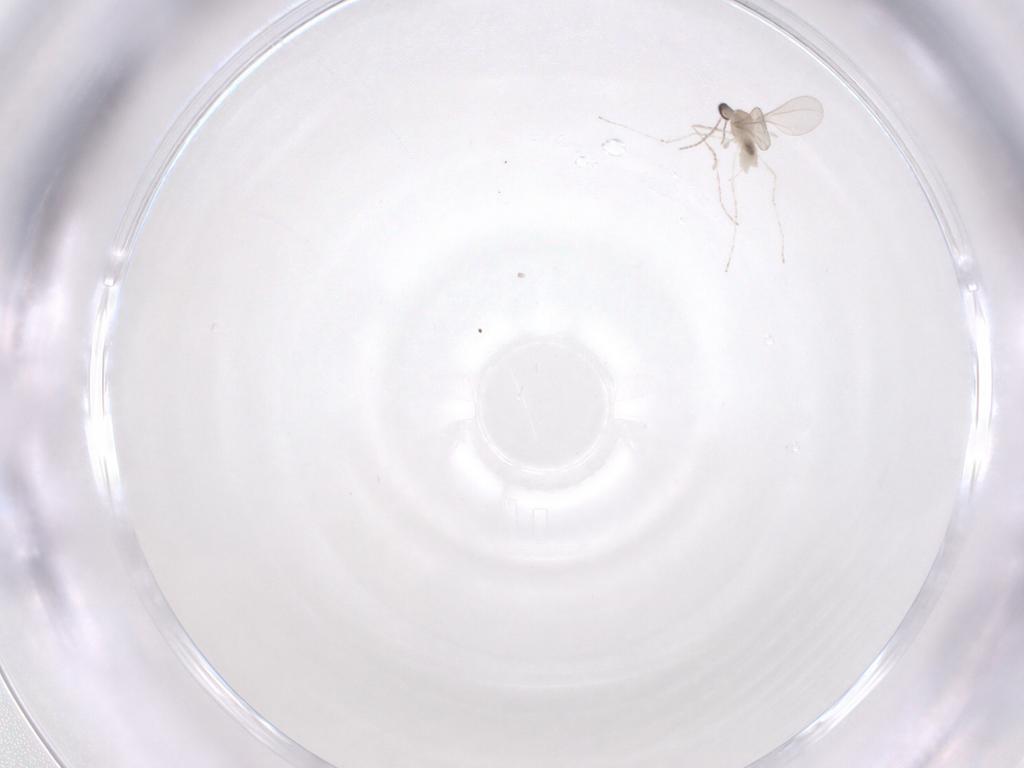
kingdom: Animalia
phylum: Arthropoda
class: Insecta
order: Diptera
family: Cecidomyiidae
